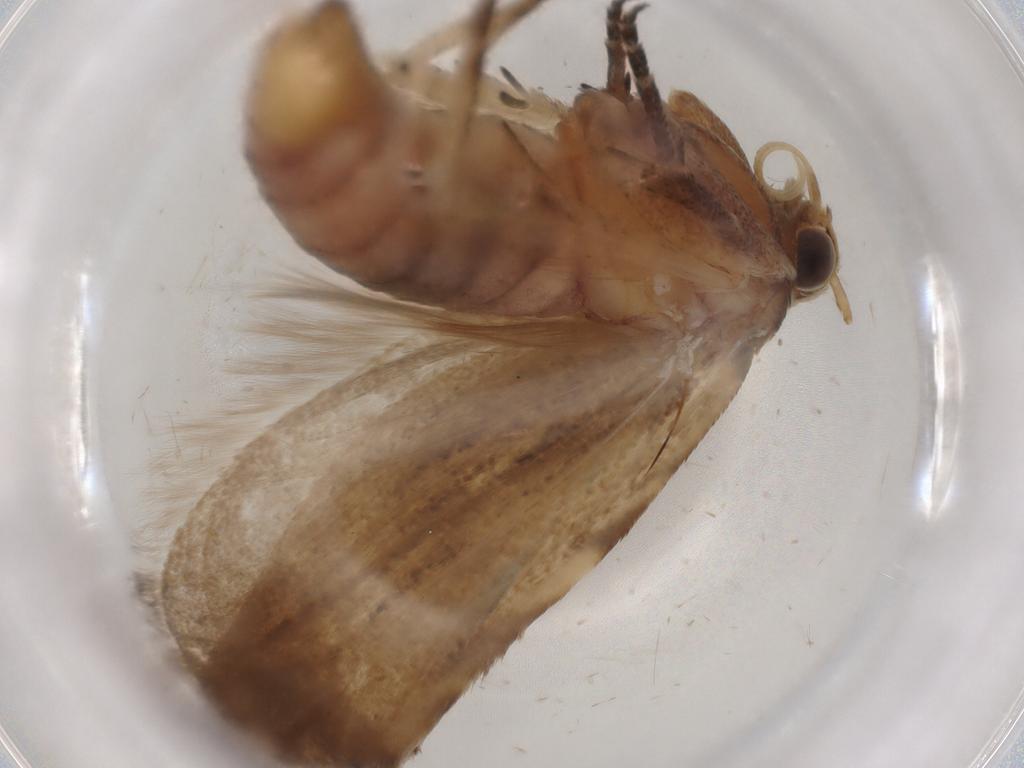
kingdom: Animalia
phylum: Arthropoda
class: Insecta
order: Lepidoptera
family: Gelechiidae
